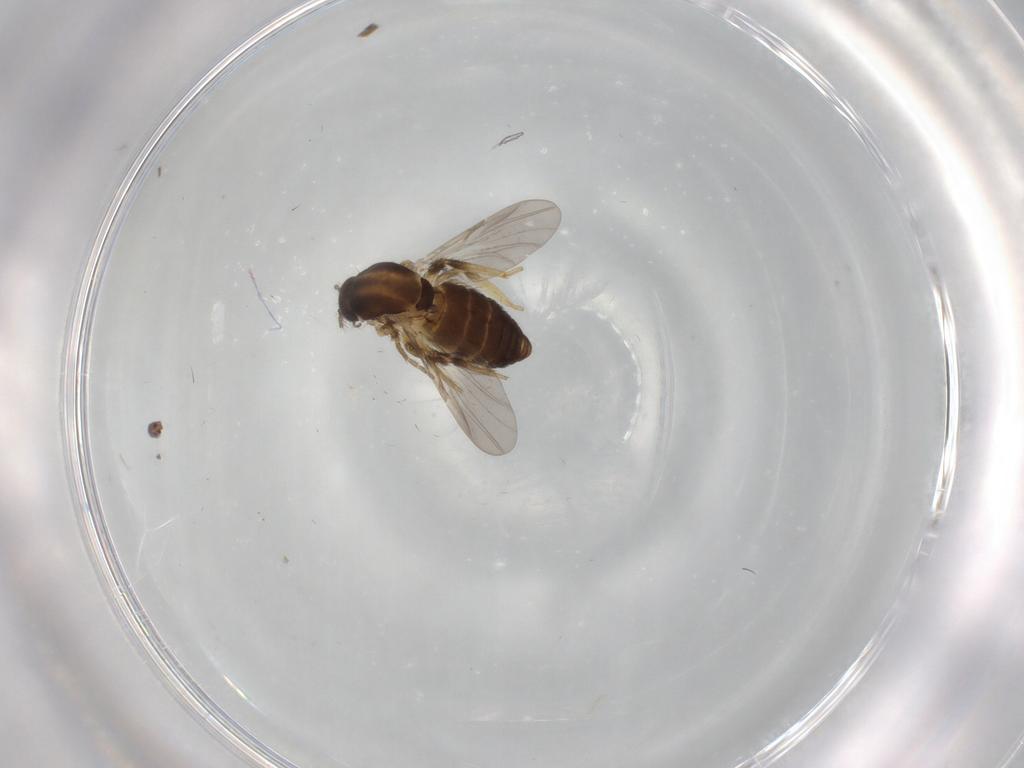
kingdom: Animalia
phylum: Arthropoda
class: Insecta
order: Diptera
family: Ceratopogonidae
